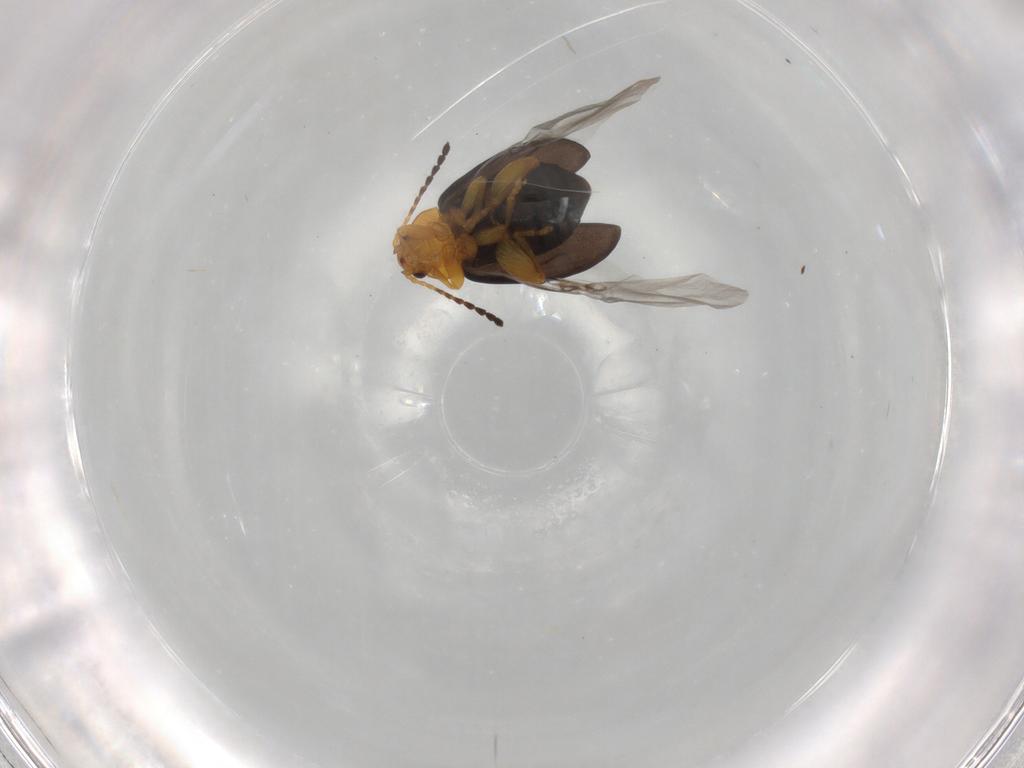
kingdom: Animalia
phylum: Arthropoda
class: Insecta
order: Coleoptera
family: Chrysomelidae
